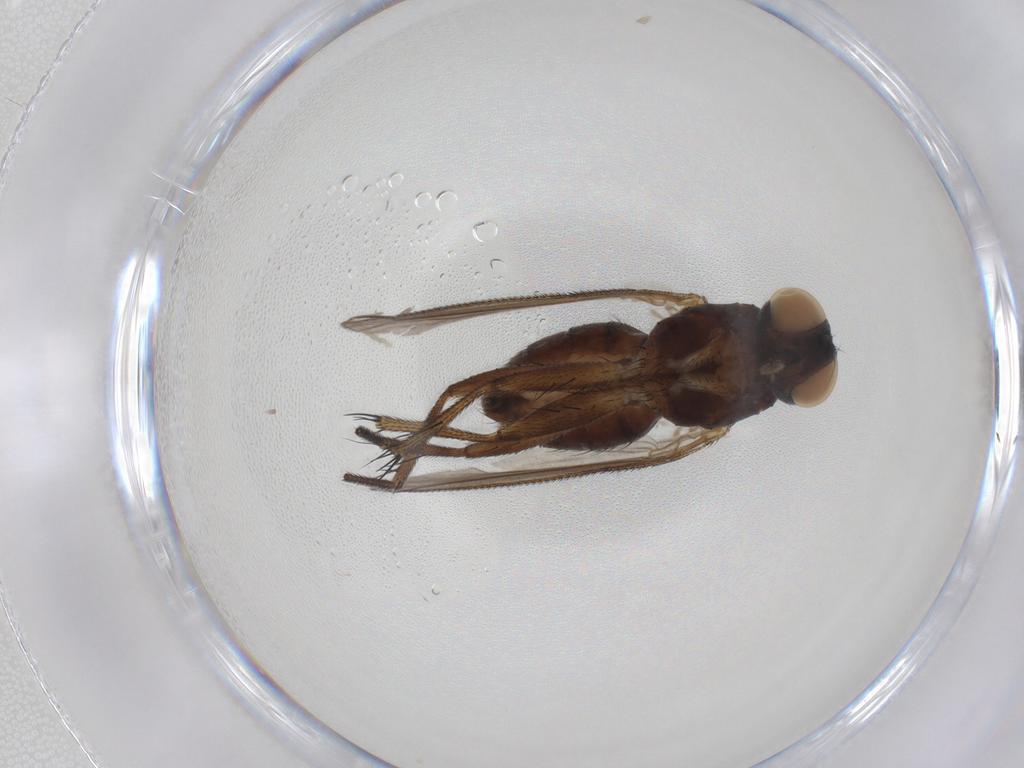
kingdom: Animalia
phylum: Arthropoda
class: Insecta
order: Diptera
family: Muscidae
